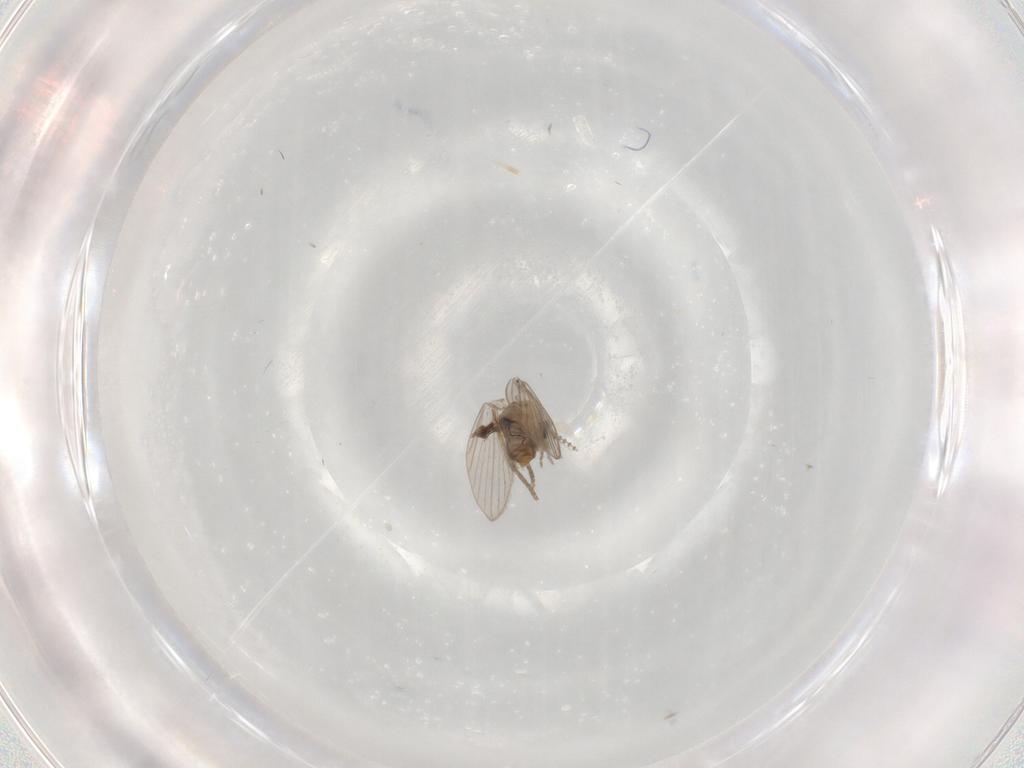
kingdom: Animalia
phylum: Arthropoda
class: Insecta
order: Diptera
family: Psychodidae
